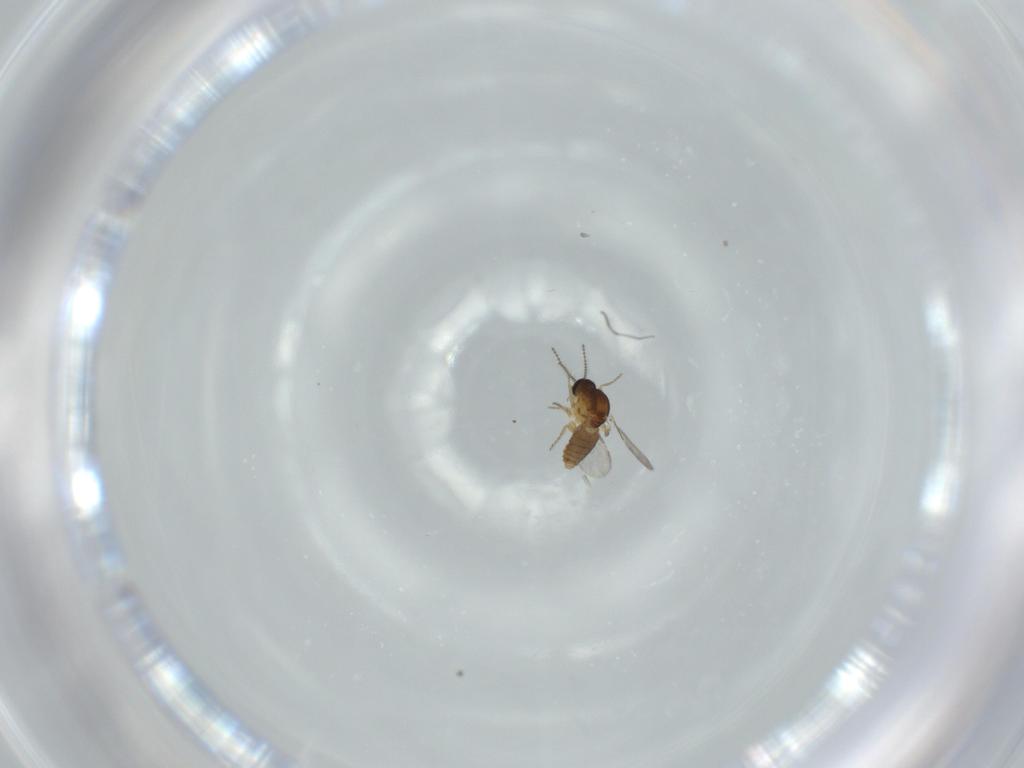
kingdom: Animalia
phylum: Arthropoda
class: Insecta
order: Diptera
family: Ceratopogonidae
